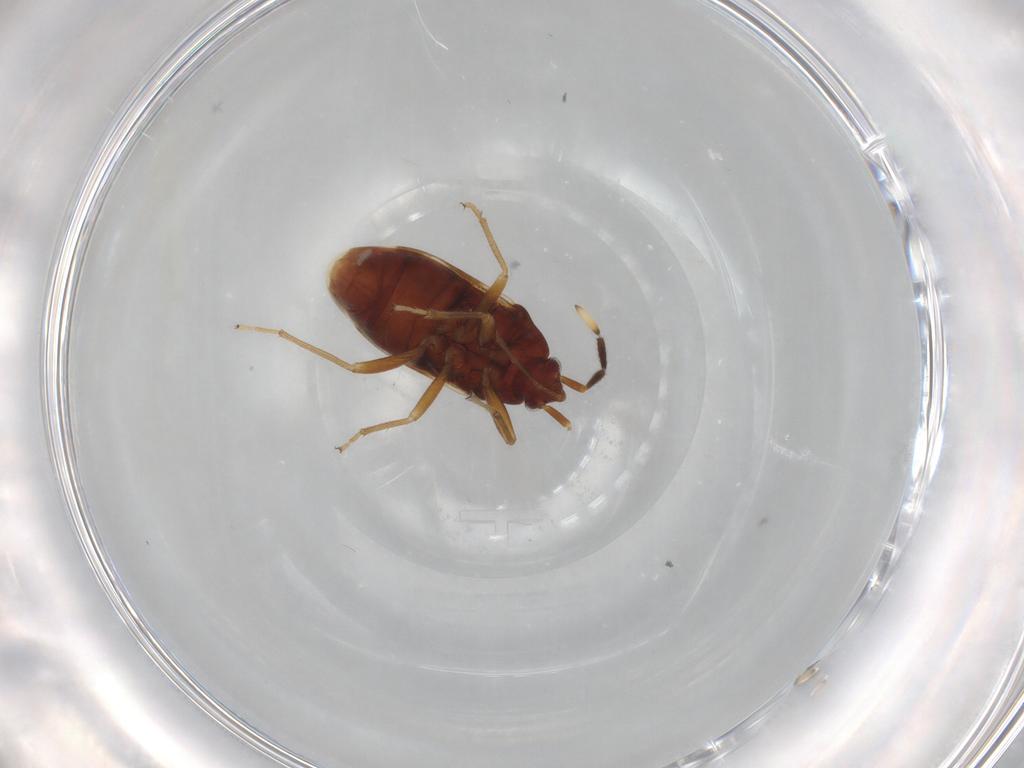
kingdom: Animalia
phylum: Arthropoda
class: Insecta
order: Hemiptera
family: Rhyparochromidae
